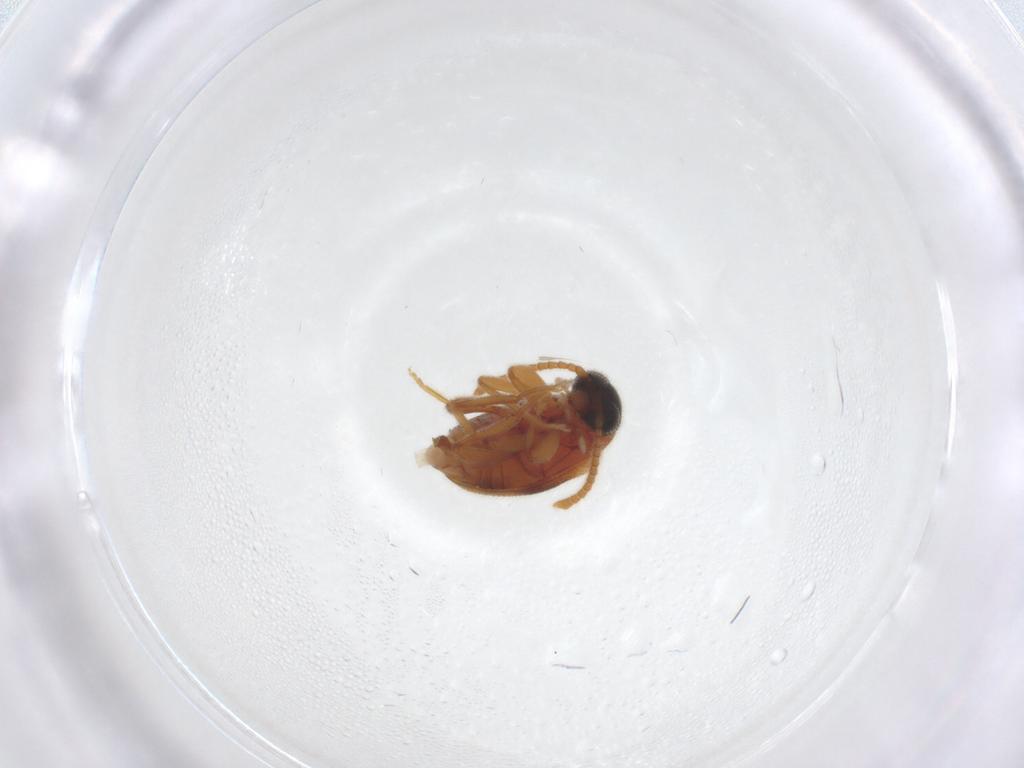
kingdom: Animalia
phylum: Arthropoda
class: Insecta
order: Coleoptera
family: Aderidae
